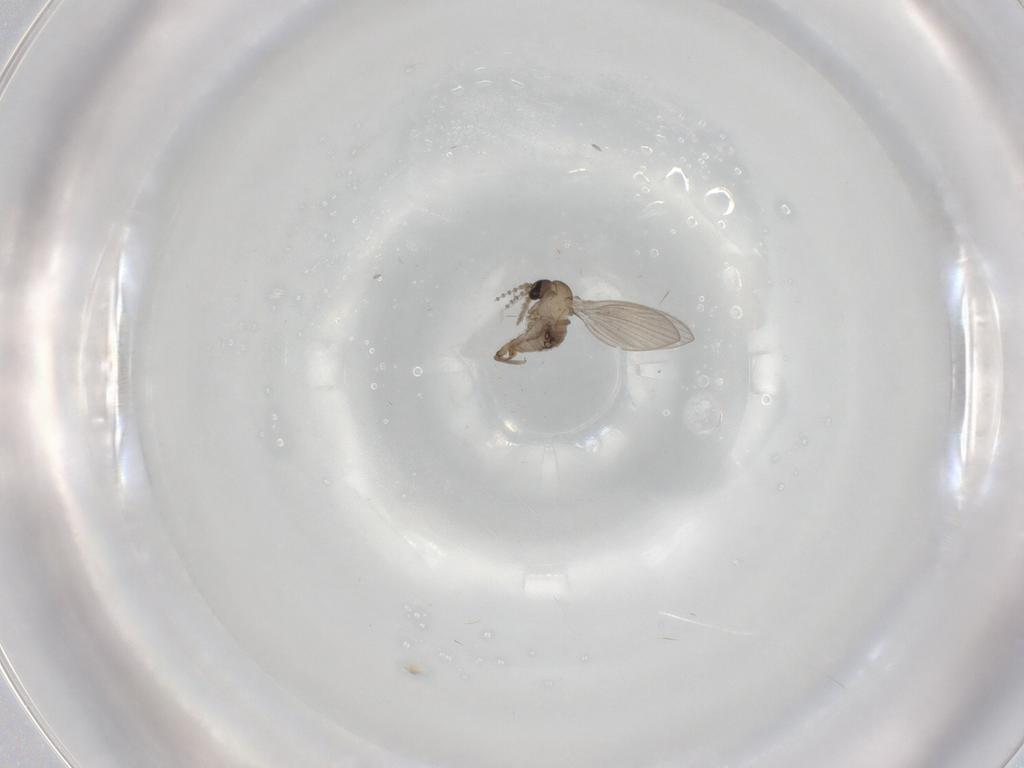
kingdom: Animalia
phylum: Arthropoda
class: Insecta
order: Diptera
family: Psychodidae
